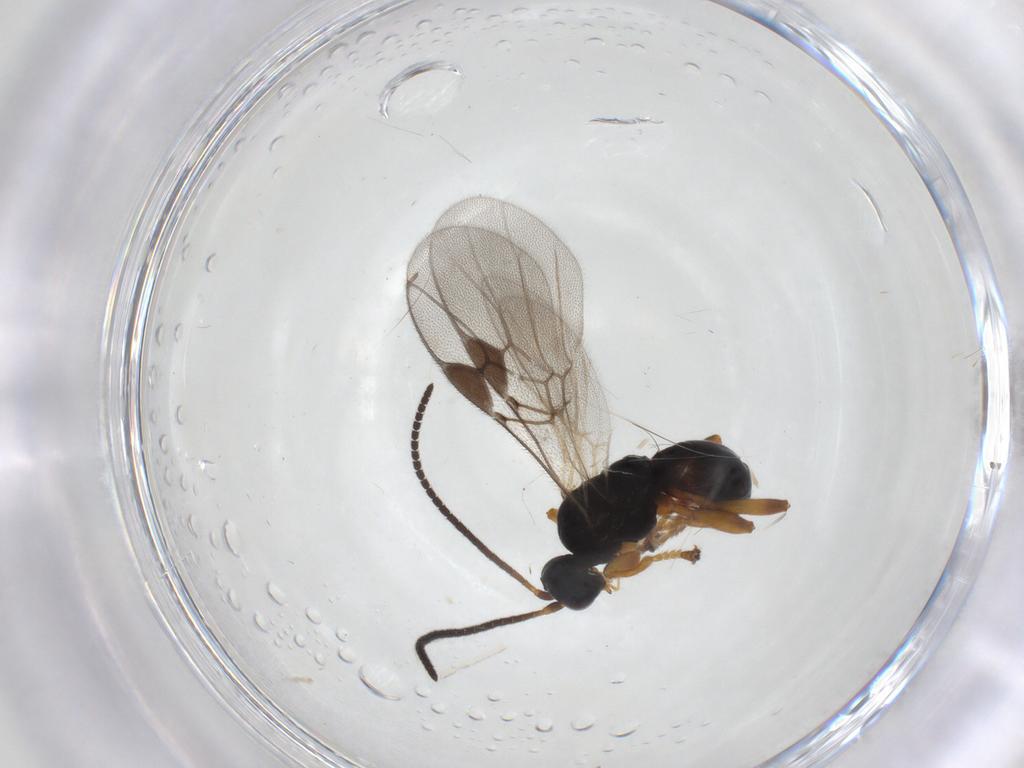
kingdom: Animalia
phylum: Arthropoda
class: Insecta
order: Hymenoptera
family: Braconidae
